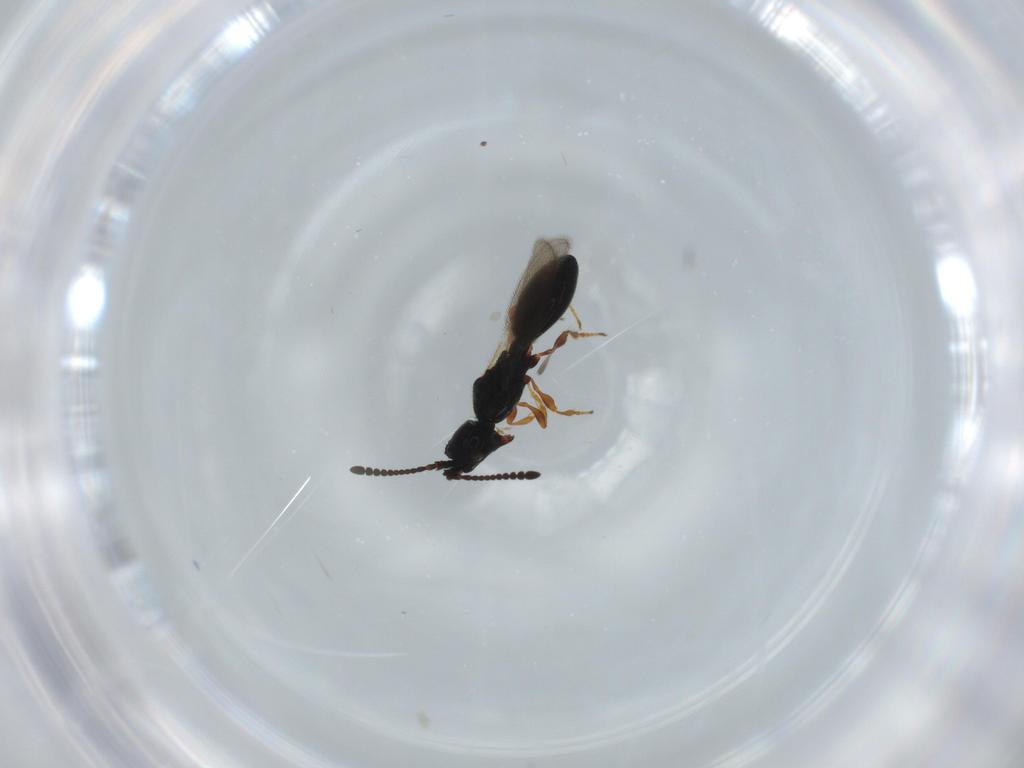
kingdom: Animalia
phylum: Arthropoda
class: Insecta
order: Hymenoptera
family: Diapriidae
